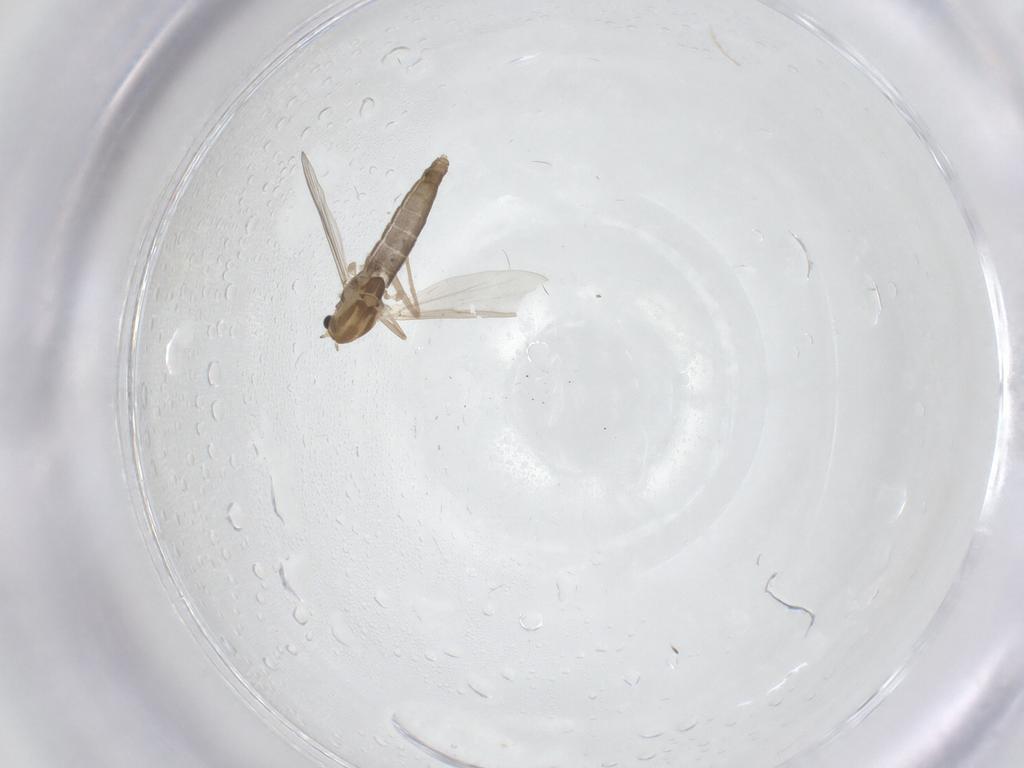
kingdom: Animalia
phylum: Arthropoda
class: Insecta
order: Diptera
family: Chironomidae
